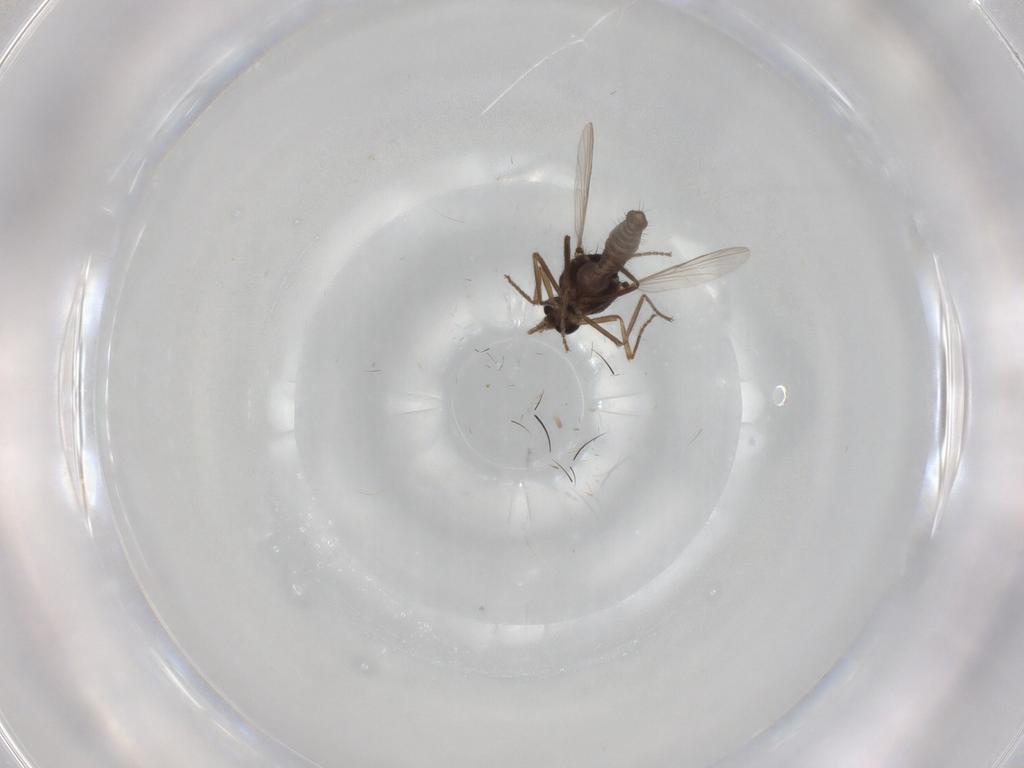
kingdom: Animalia
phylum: Arthropoda
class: Insecta
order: Diptera
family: Ceratopogonidae
